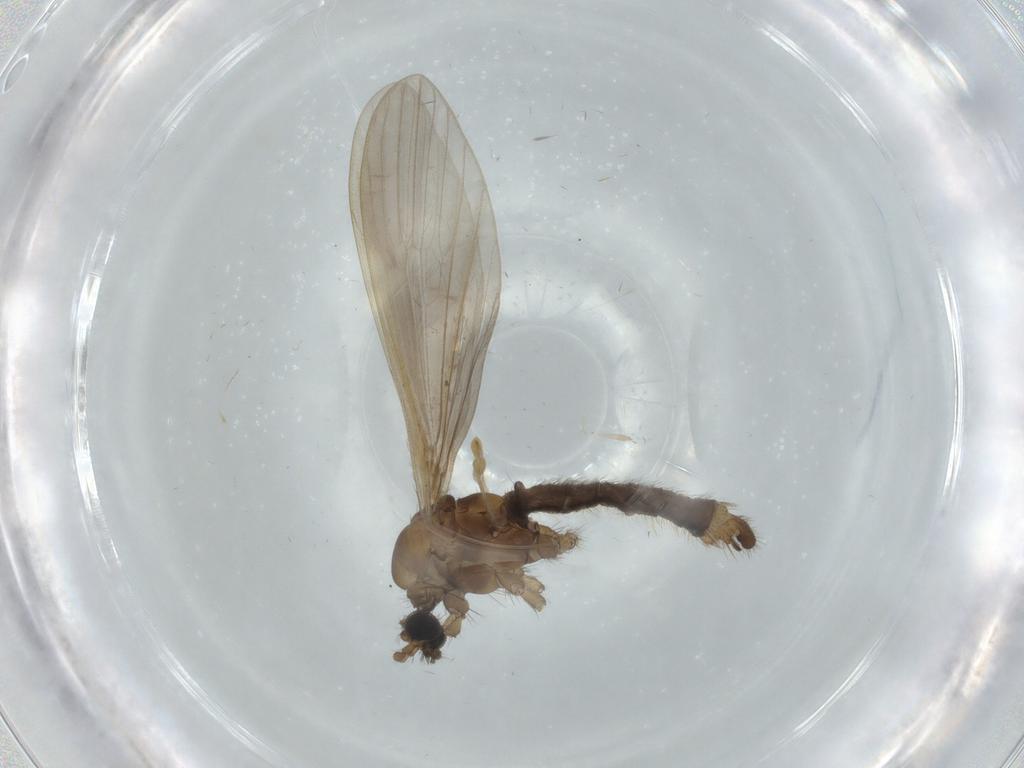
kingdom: Animalia
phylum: Arthropoda
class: Insecta
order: Diptera
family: Limoniidae
